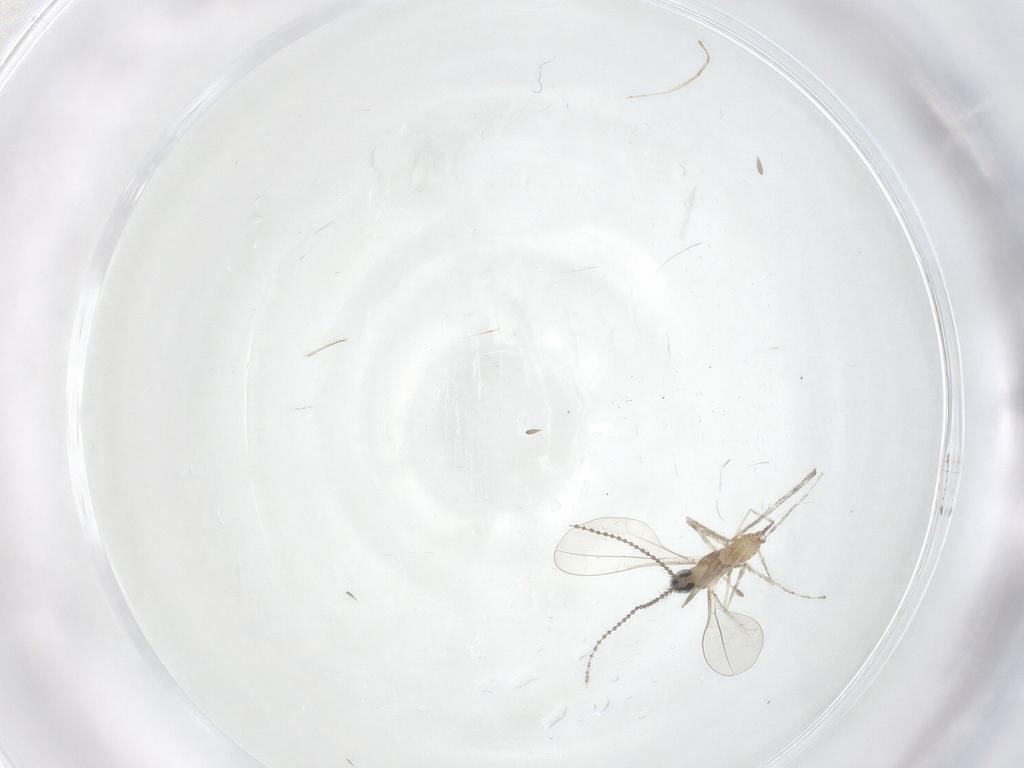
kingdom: Animalia
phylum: Arthropoda
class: Insecta
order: Diptera
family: Cecidomyiidae
